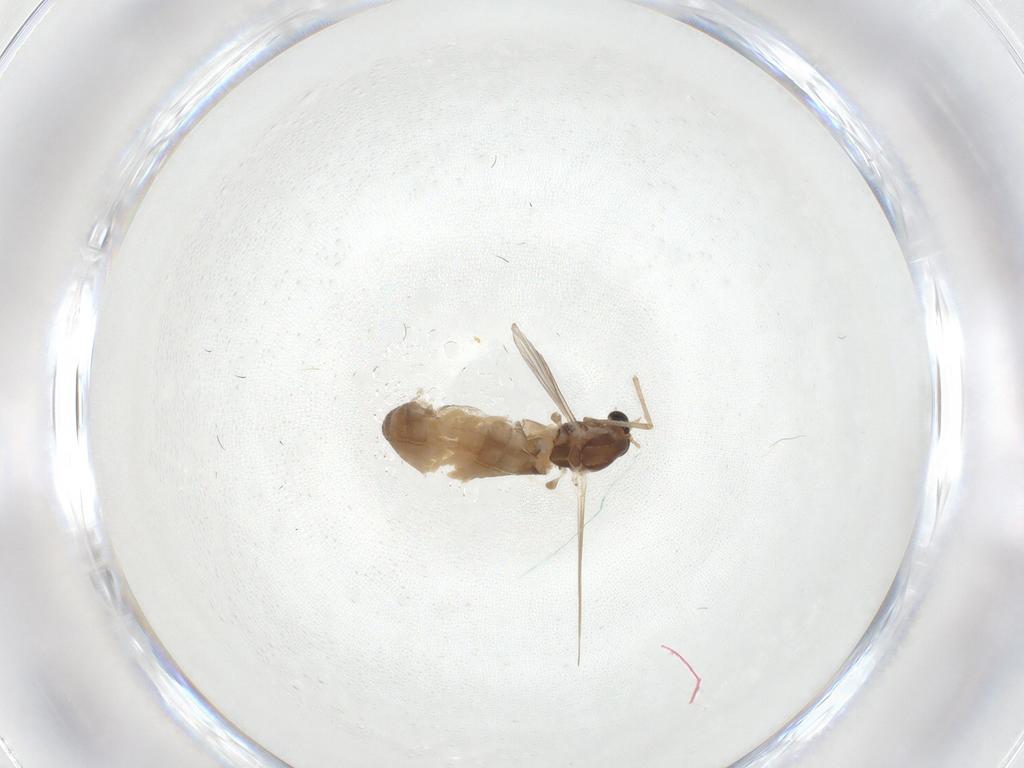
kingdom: Animalia
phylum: Arthropoda
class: Insecta
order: Diptera
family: Chironomidae
